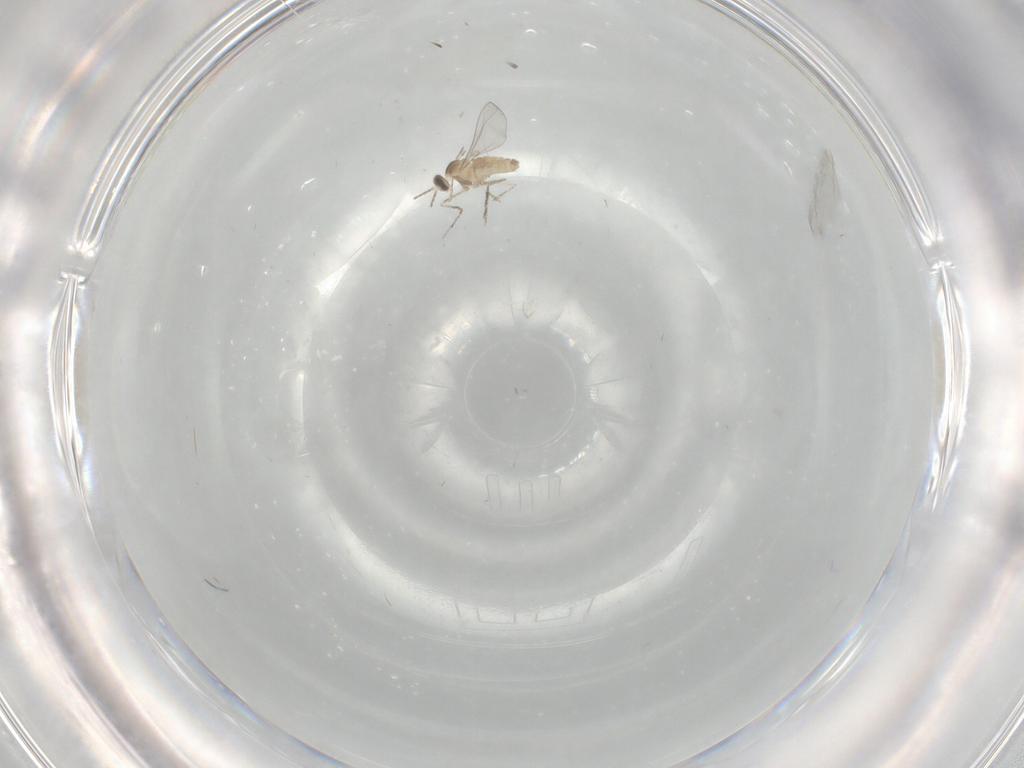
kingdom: Animalia
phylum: Arthropoda
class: Insecta
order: Diptera
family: Cecidomyiidae
